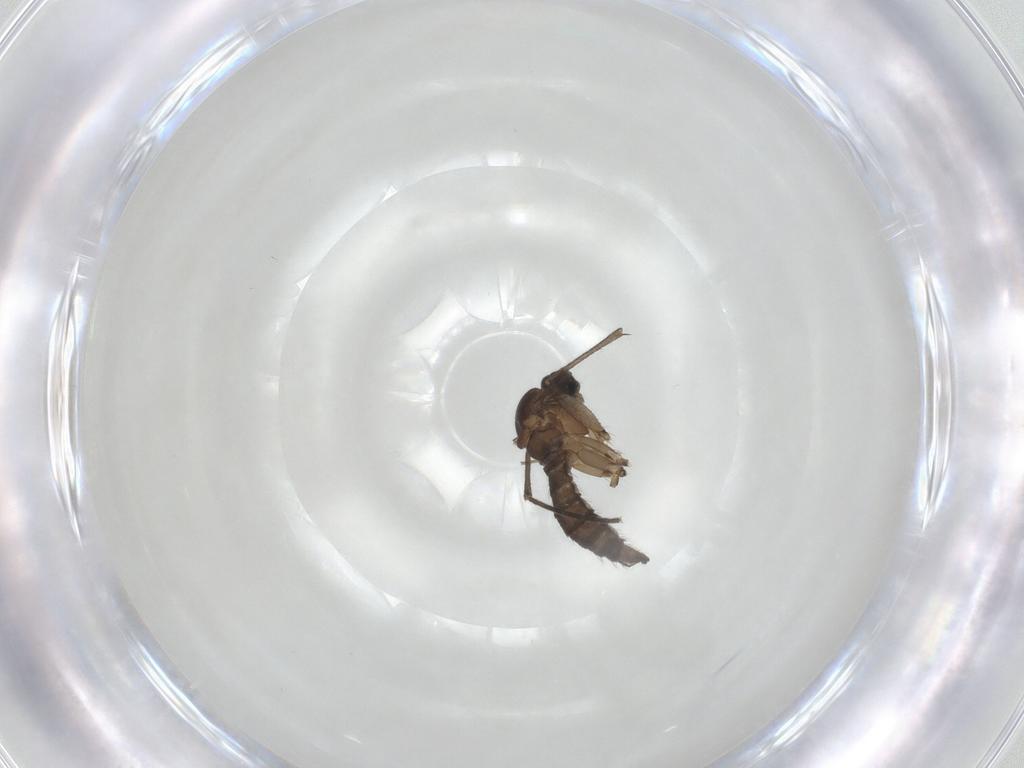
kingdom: Animalia
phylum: Arthropoda
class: Insecta
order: Diptera
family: Sciaridae
